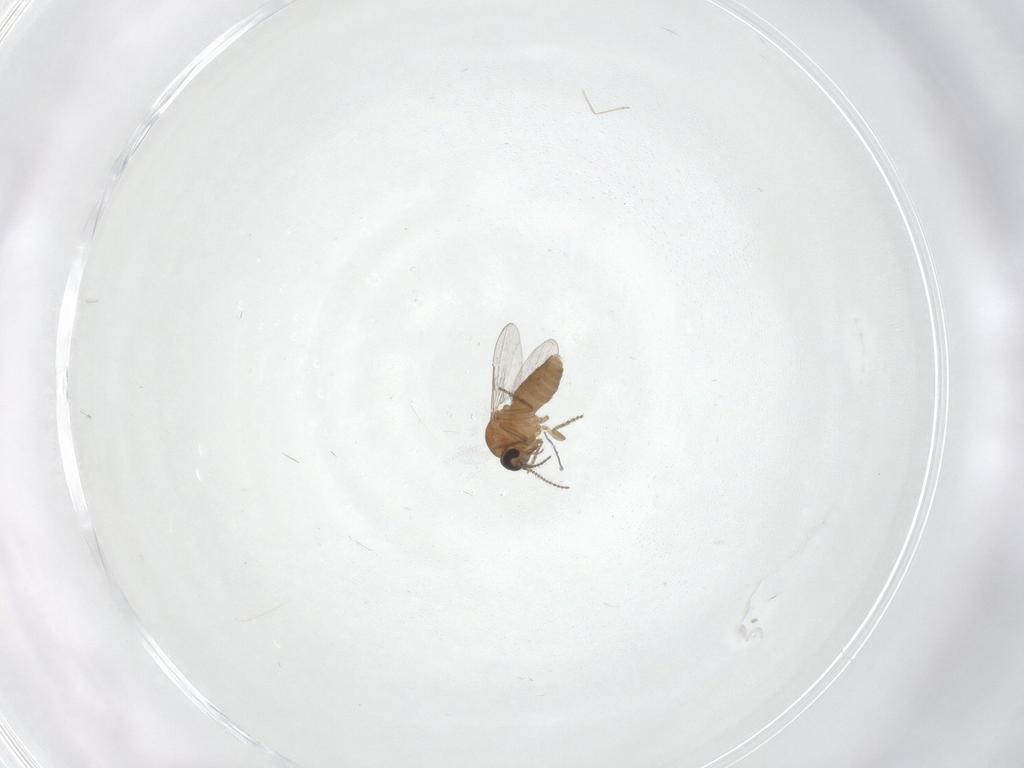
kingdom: Animalia
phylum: Arthropoda
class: Insecta
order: Diptera
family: Ceratopogonidae
